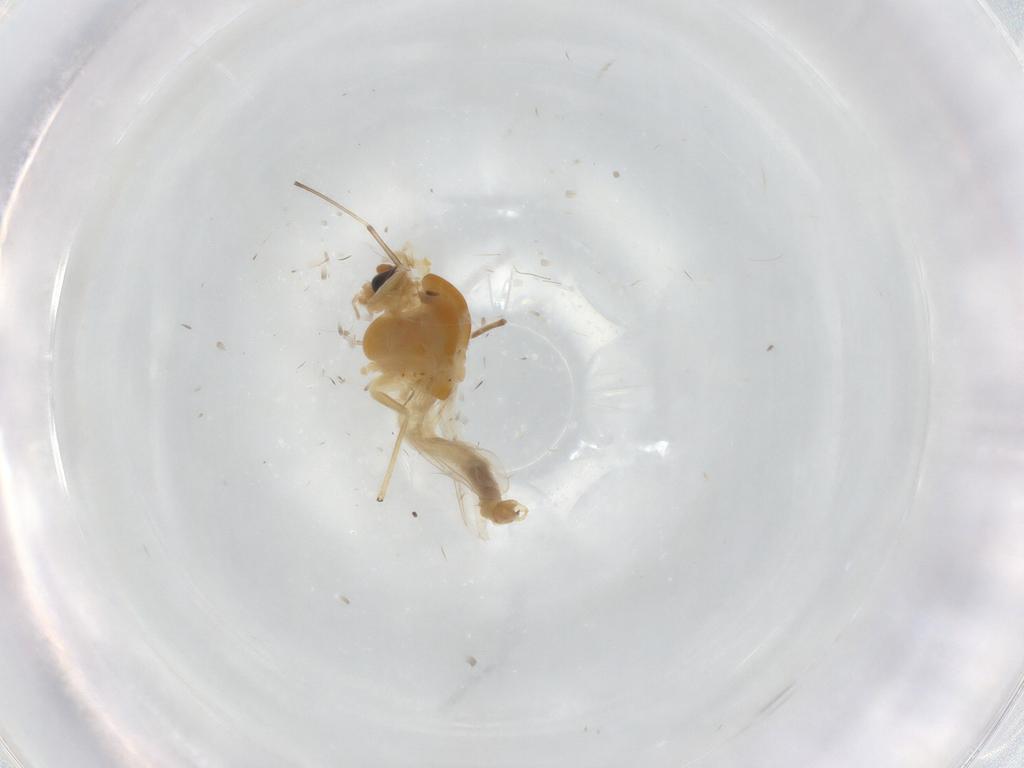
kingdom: Animalia
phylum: Arthropoda
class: Insecta
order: Diptera
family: Chironomidae
